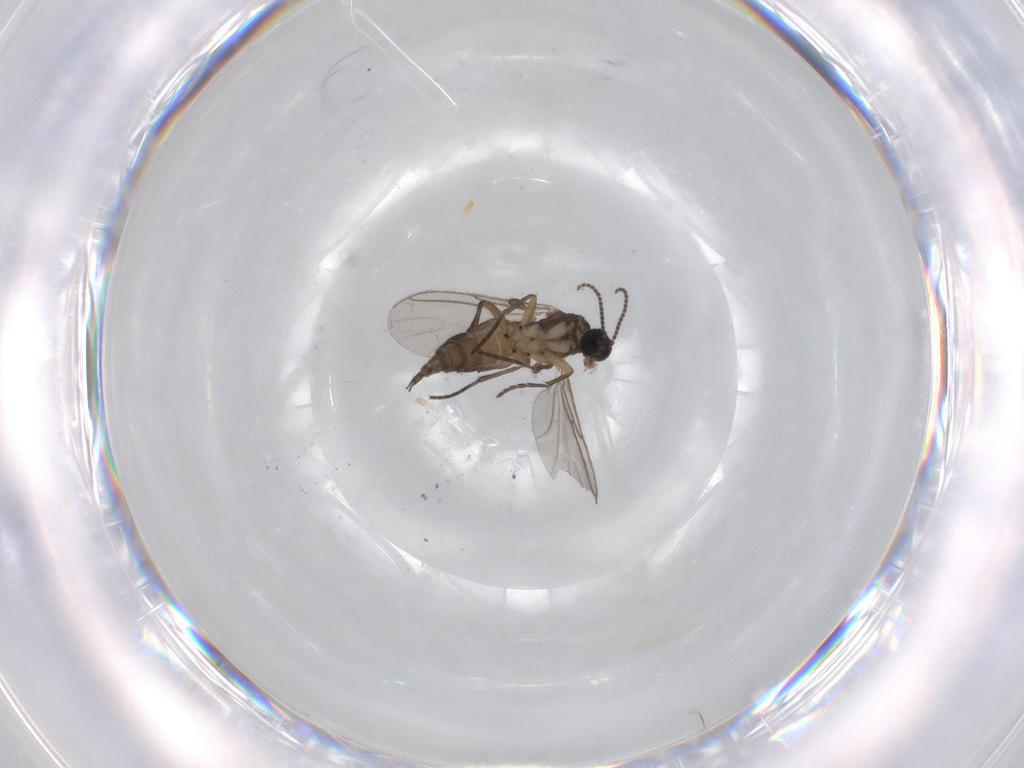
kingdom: Animalia
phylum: Arthropoda
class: Insecta
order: Diptera
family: Sciaridae
